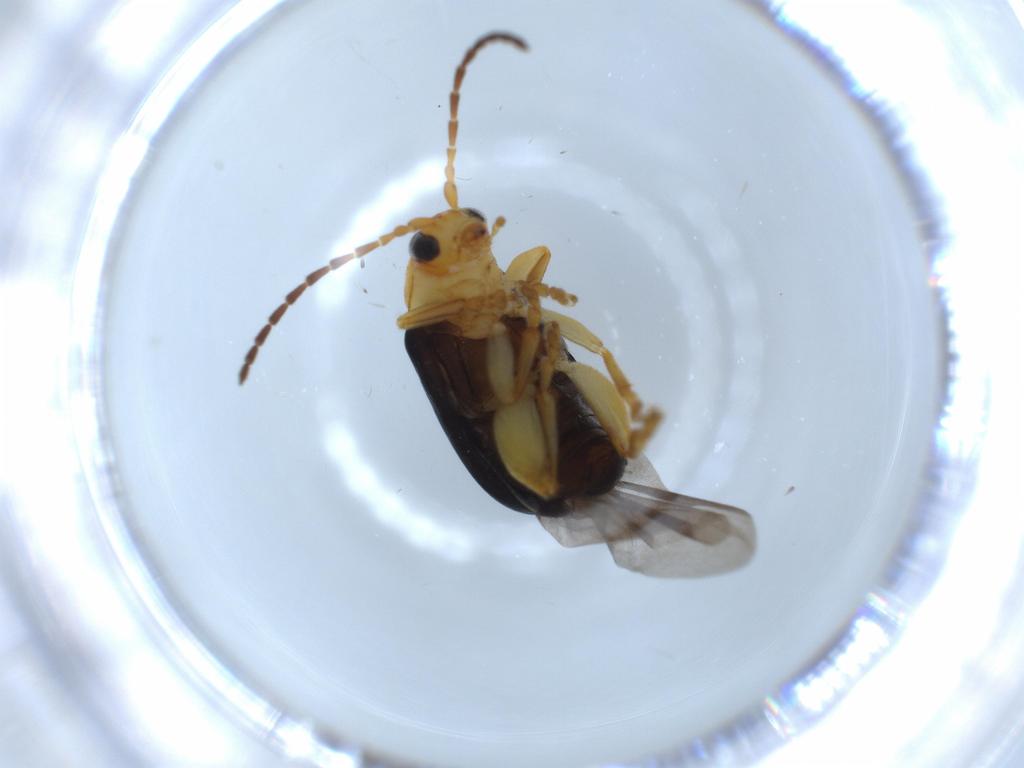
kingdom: Animalia
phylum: Arthropoda
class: Insecta
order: Coleoptera
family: Chrysomelidae
